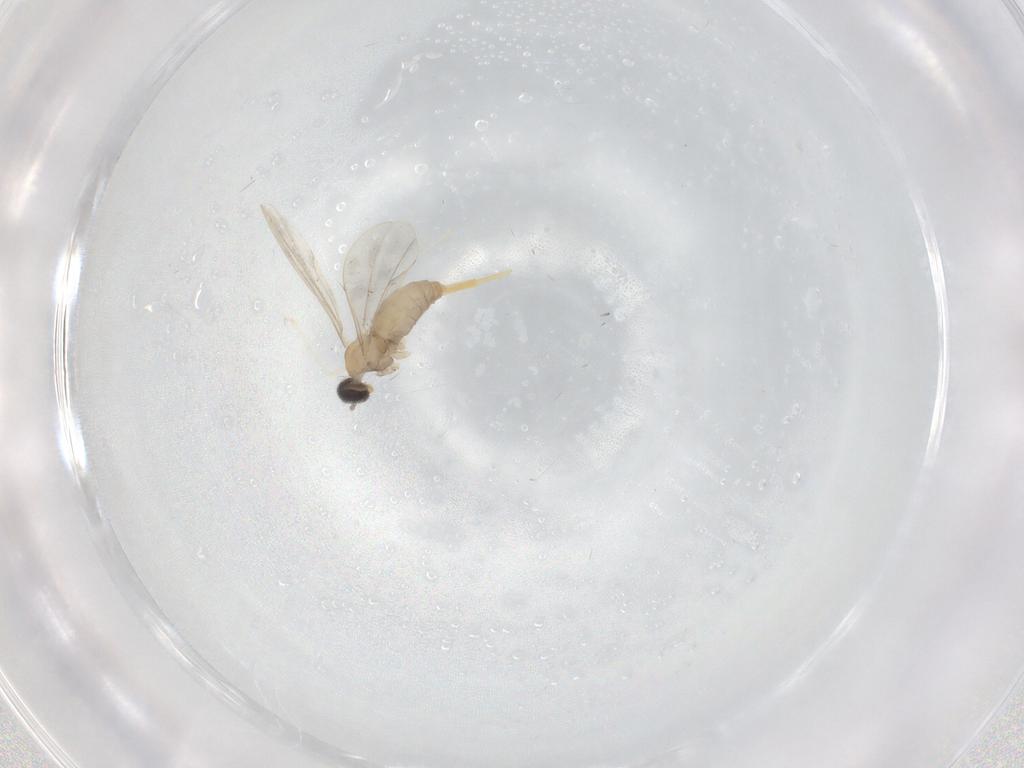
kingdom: Animalia
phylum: Arthropoda
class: Insecta
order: Diptera
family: Cecidomyiidae
